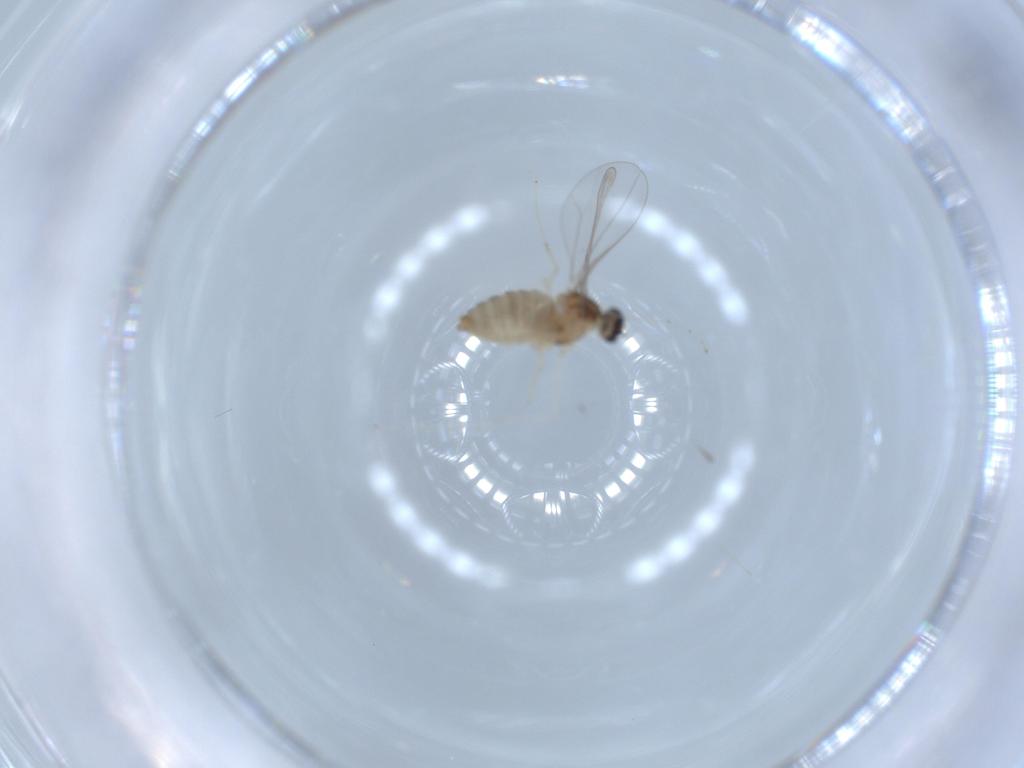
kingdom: Animalia
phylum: Arthropoda
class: Insecta
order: Diptera
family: Cecidomyiidae
